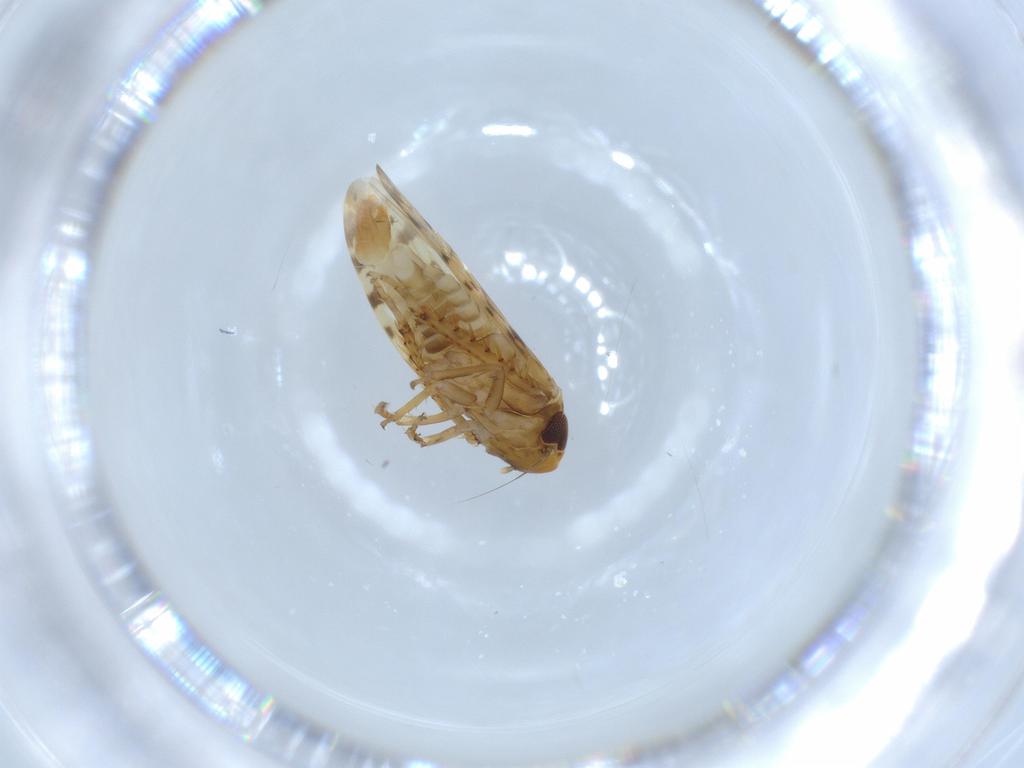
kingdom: Animalia
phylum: Arthropoda
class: Insecta
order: Hemiptera
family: Cicadellidae
